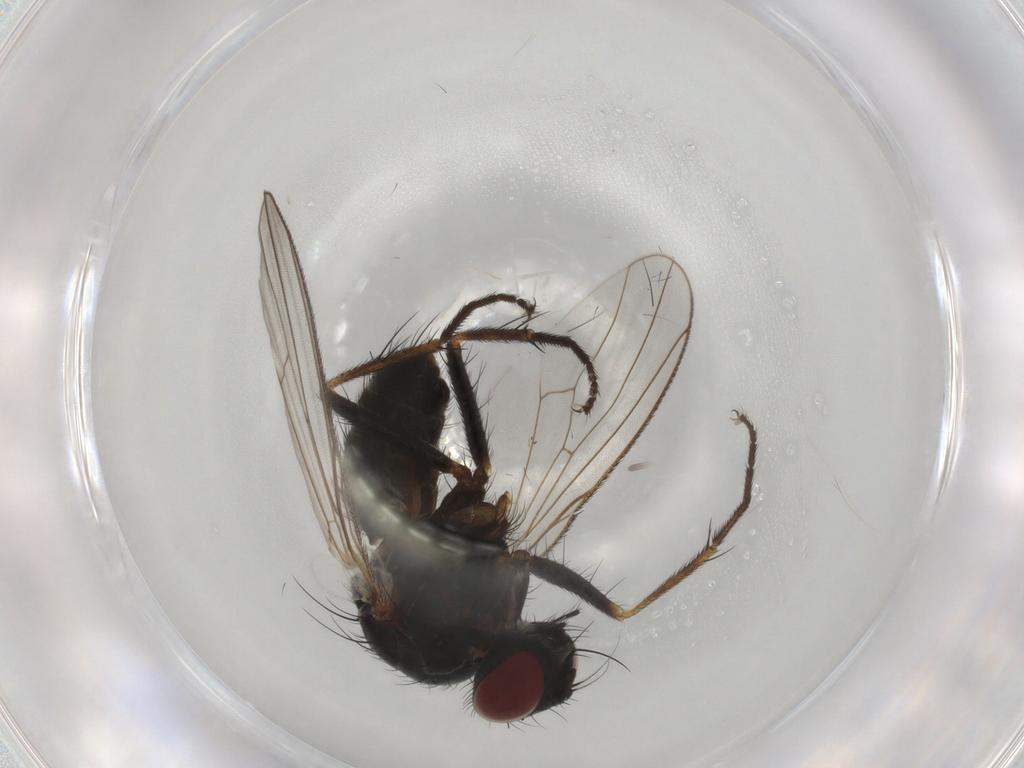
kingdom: Animalia
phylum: Arthropoda
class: Insecta
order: Diptera
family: Muscidae
